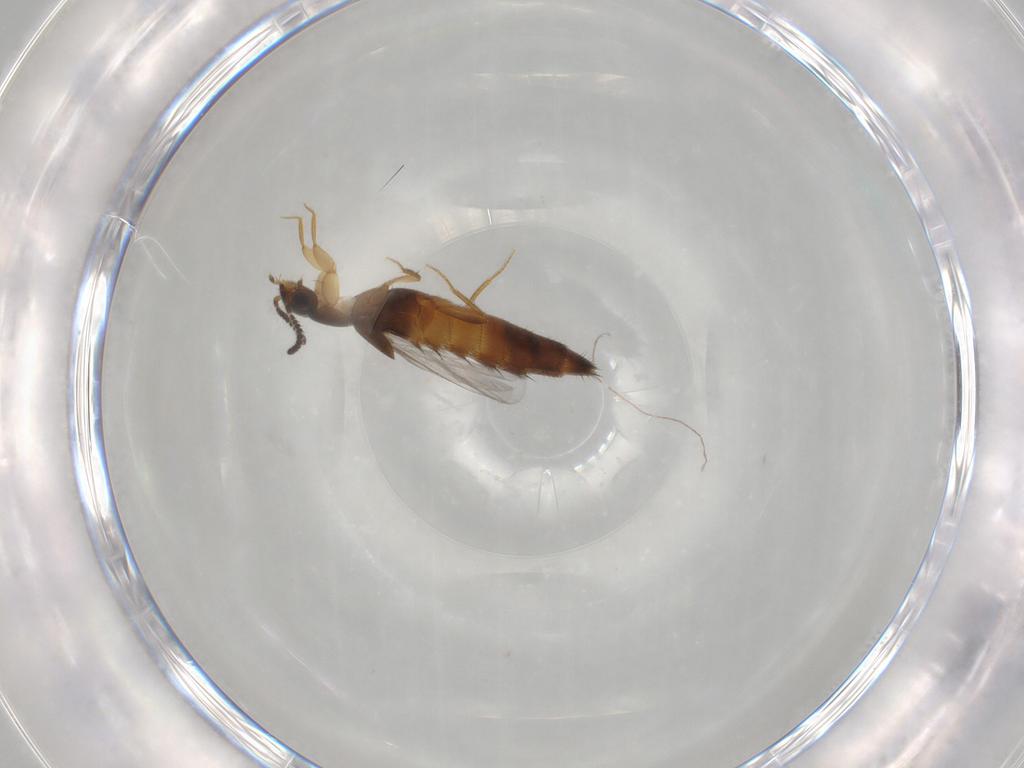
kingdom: Animalia
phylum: Arthropoda
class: Insecta
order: Coleoptera
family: Staphylinidae
